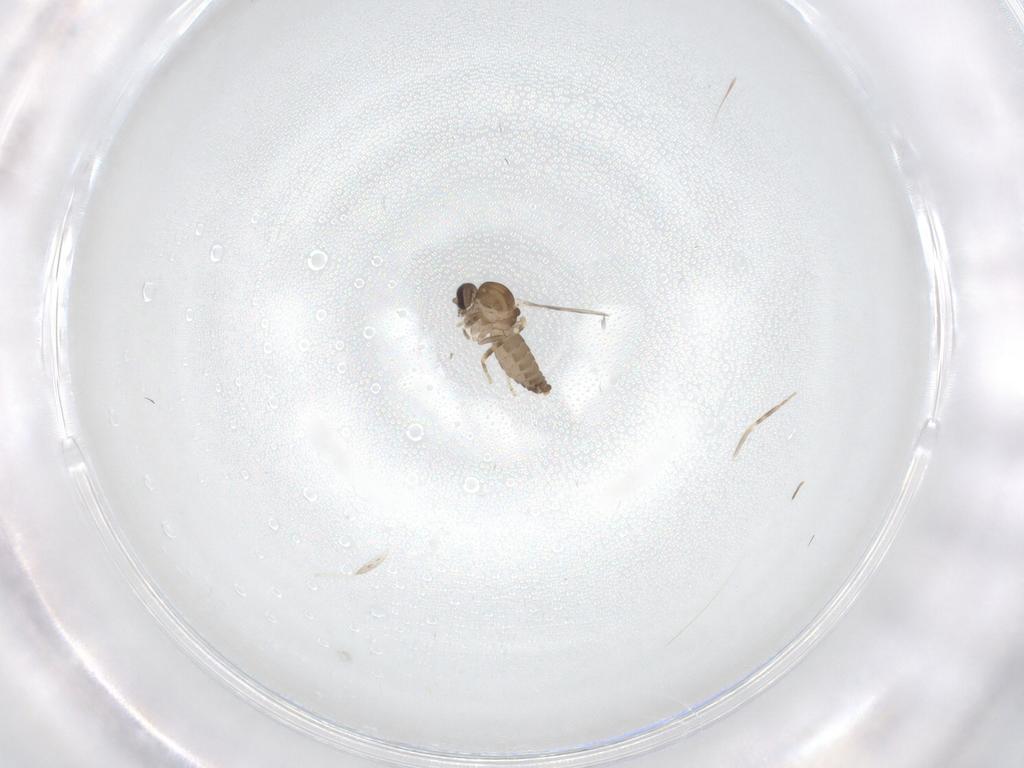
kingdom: Animalia
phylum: Arthropoda
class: Insecta
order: Diptera
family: Ceratopogonidae
